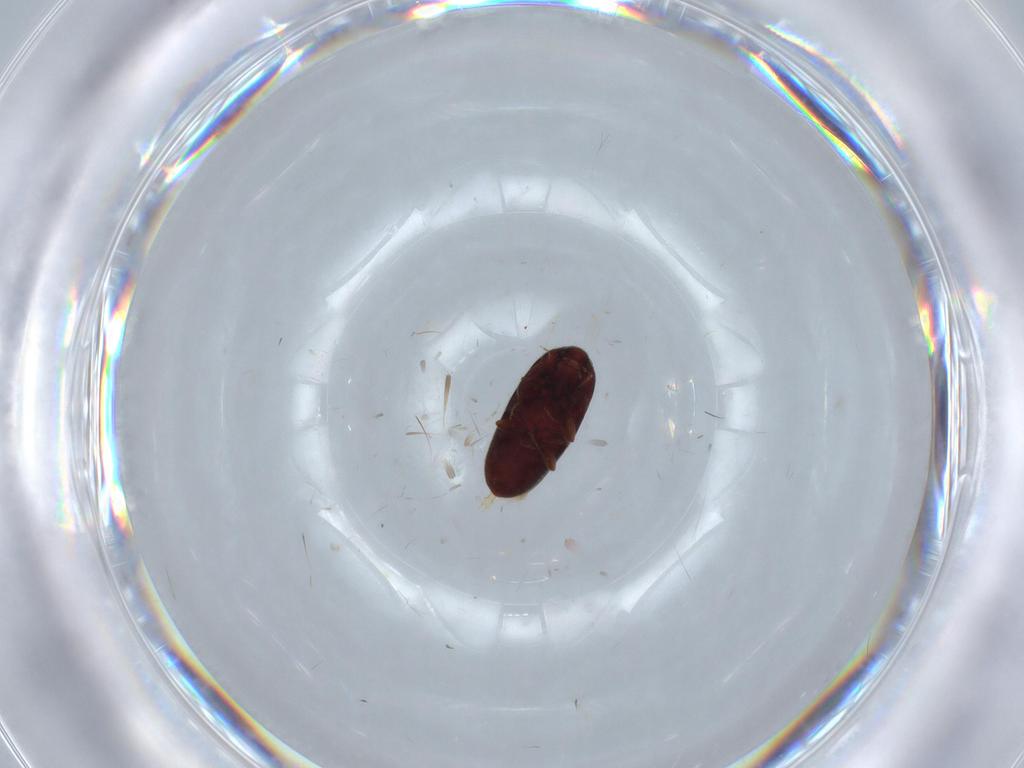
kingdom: Animalia
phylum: Arthropoda
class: Insecta
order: Coleoptera
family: Throscidae
